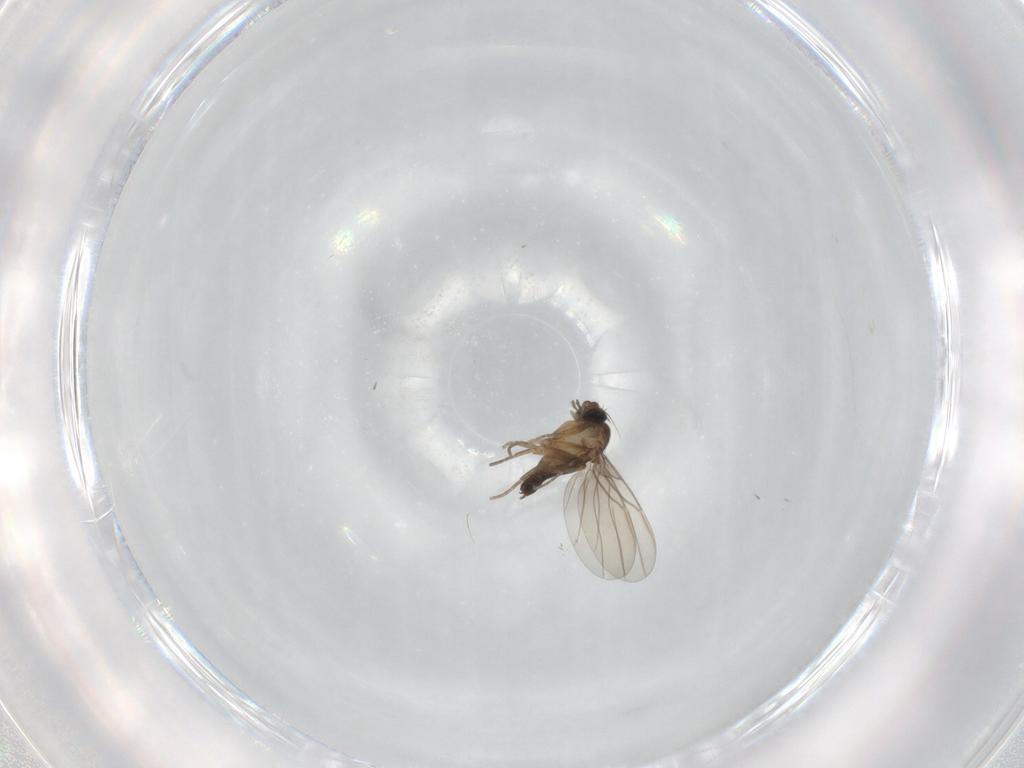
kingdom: Animalia
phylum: Arthropoda
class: Insecta
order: Diptera
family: Phoridae
